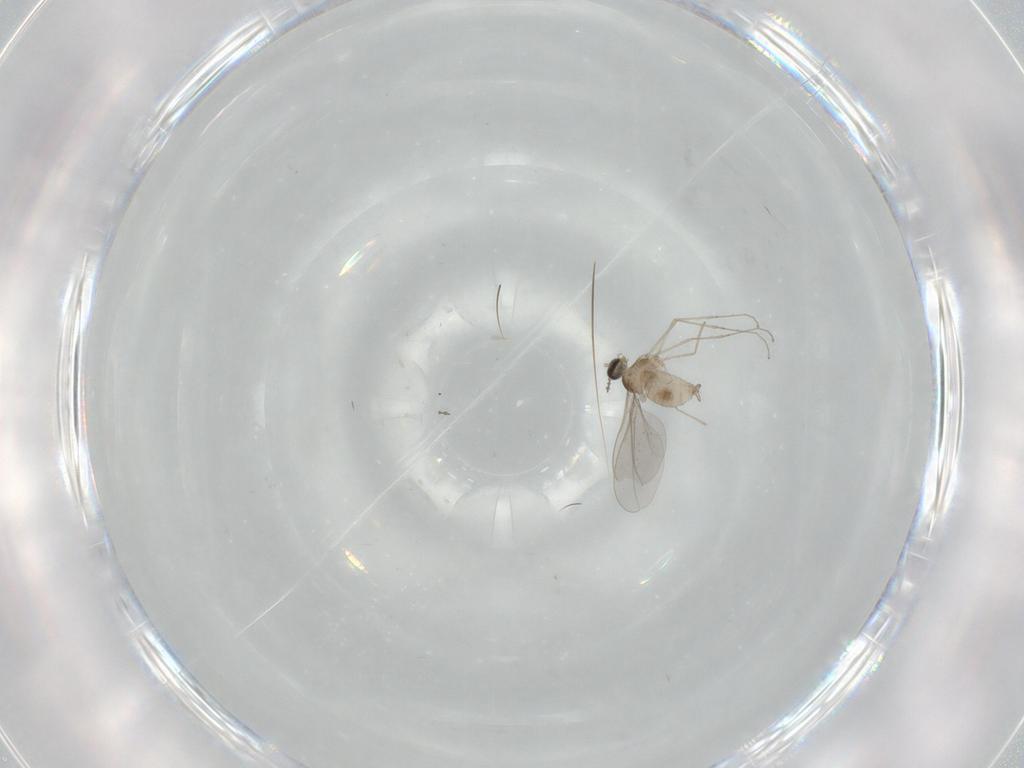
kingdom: Animalia
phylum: Arthropoda
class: Insecta
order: Diptera
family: Cecidomyiidae
